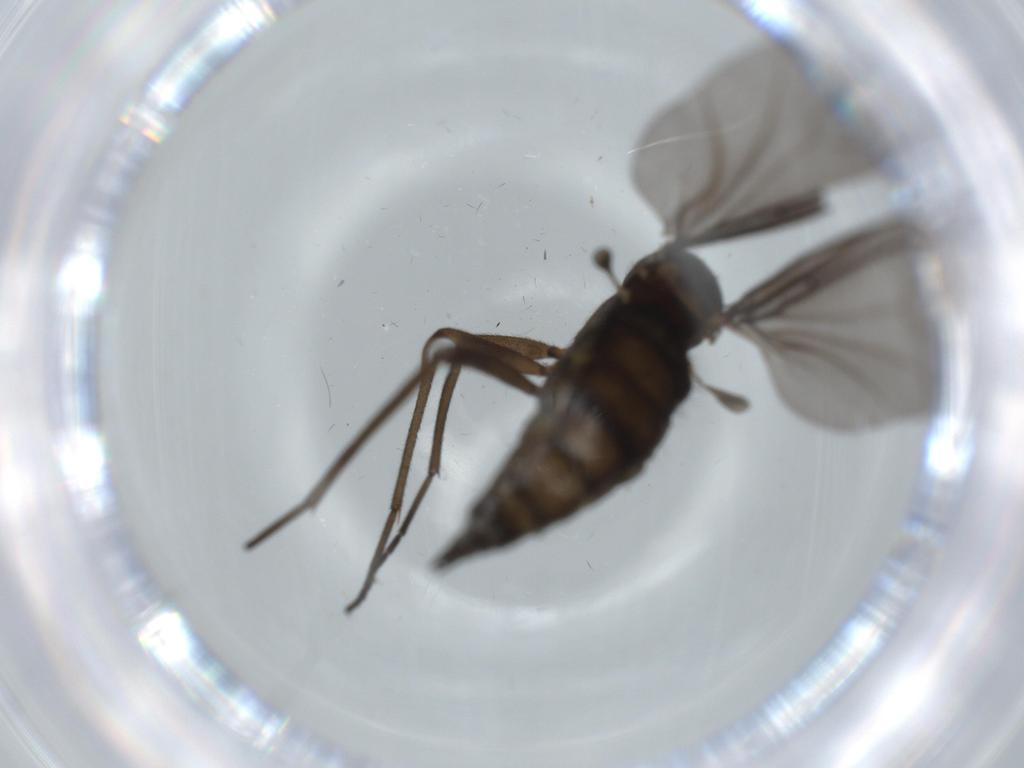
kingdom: Animalia
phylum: Arthropoda
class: Insecta
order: Diptera
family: Sciaridae
